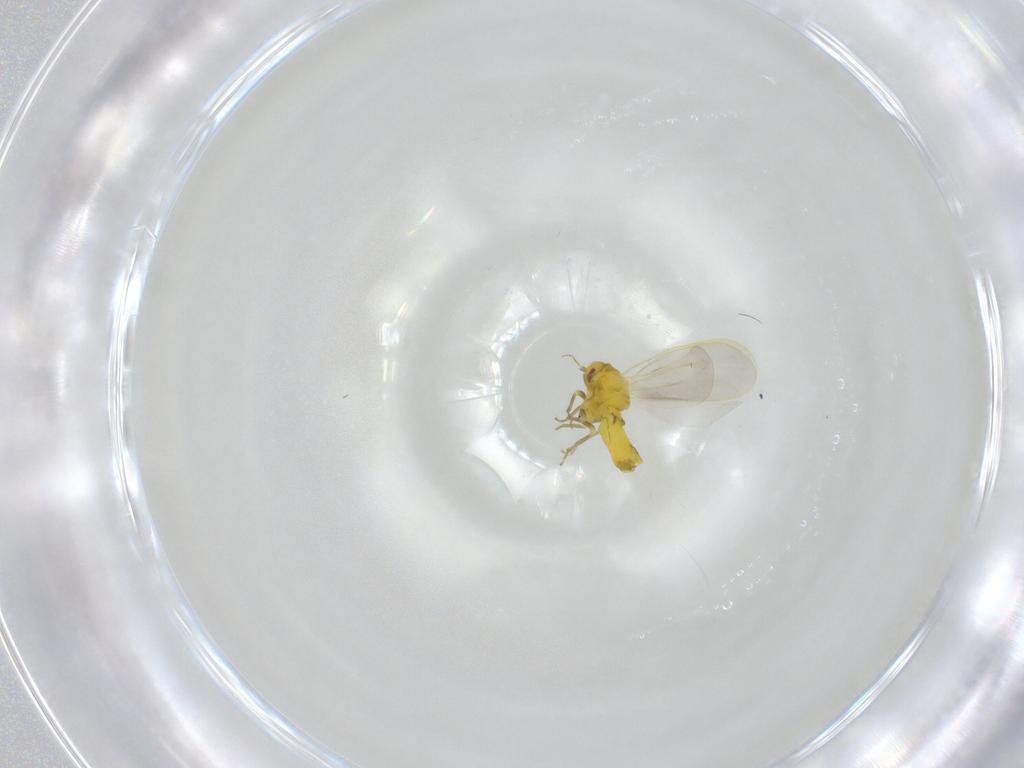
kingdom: Animalia
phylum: Arthropoda
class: Insecta
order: Hemiptera
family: Aleyrodidae
